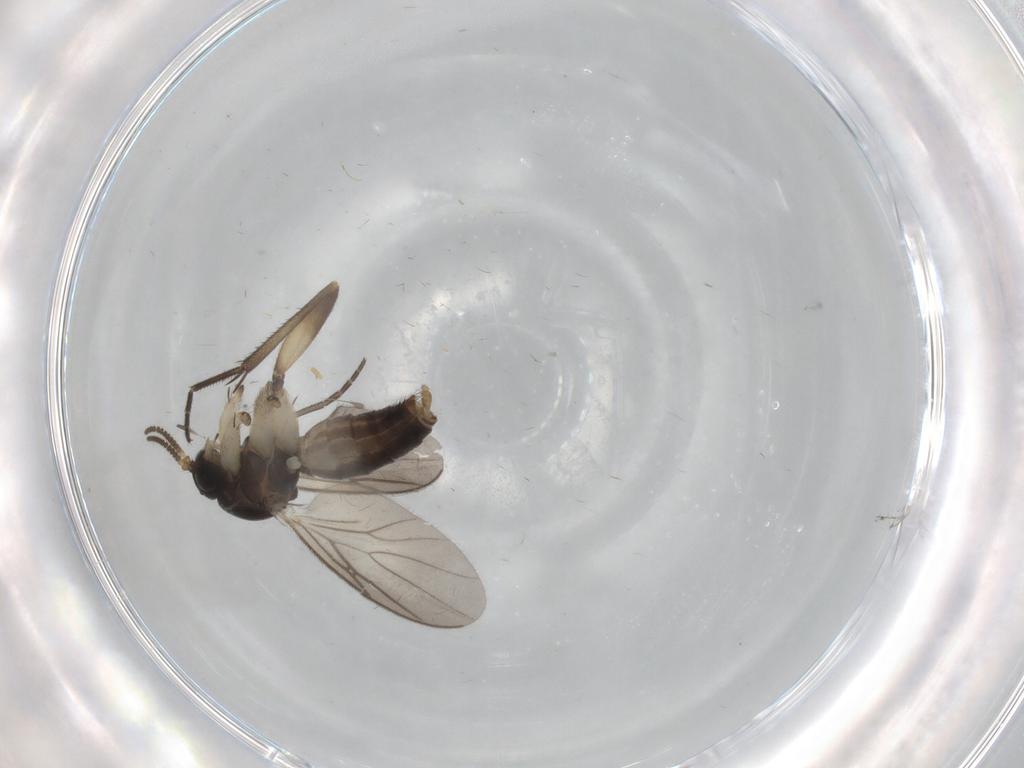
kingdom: Animalia
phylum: Arthropoda
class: Insecta
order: Diptera
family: Mycetophilidae
